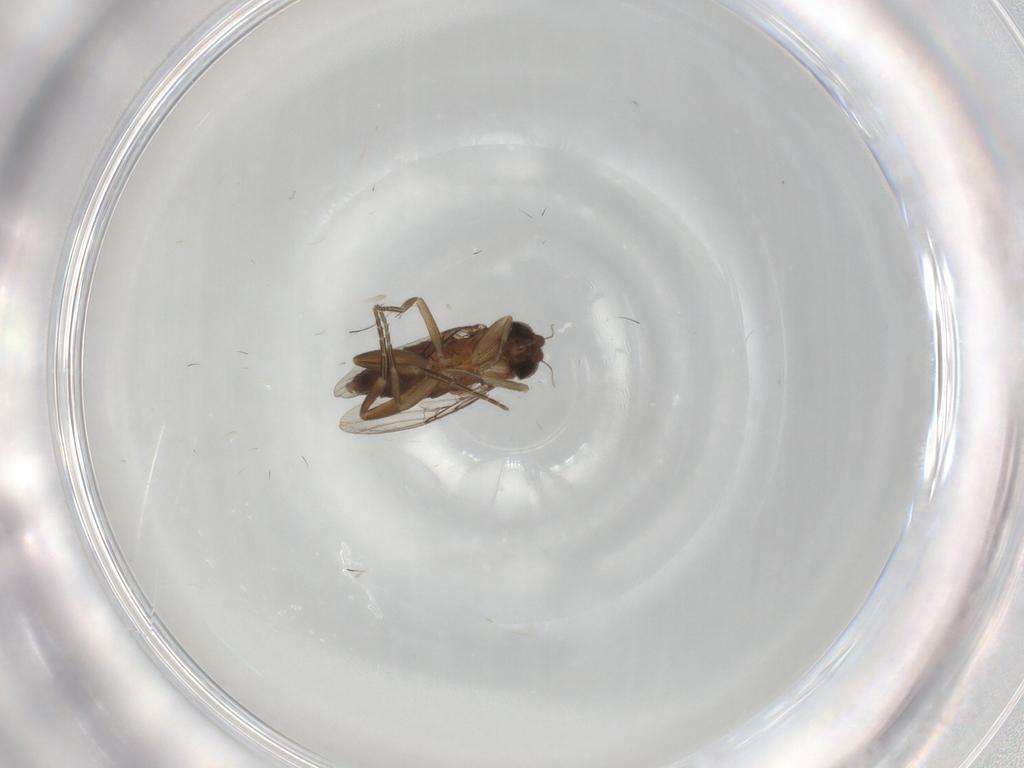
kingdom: Animalia
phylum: Arthropoda
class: Insecta
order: Diptera
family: Phoridae
